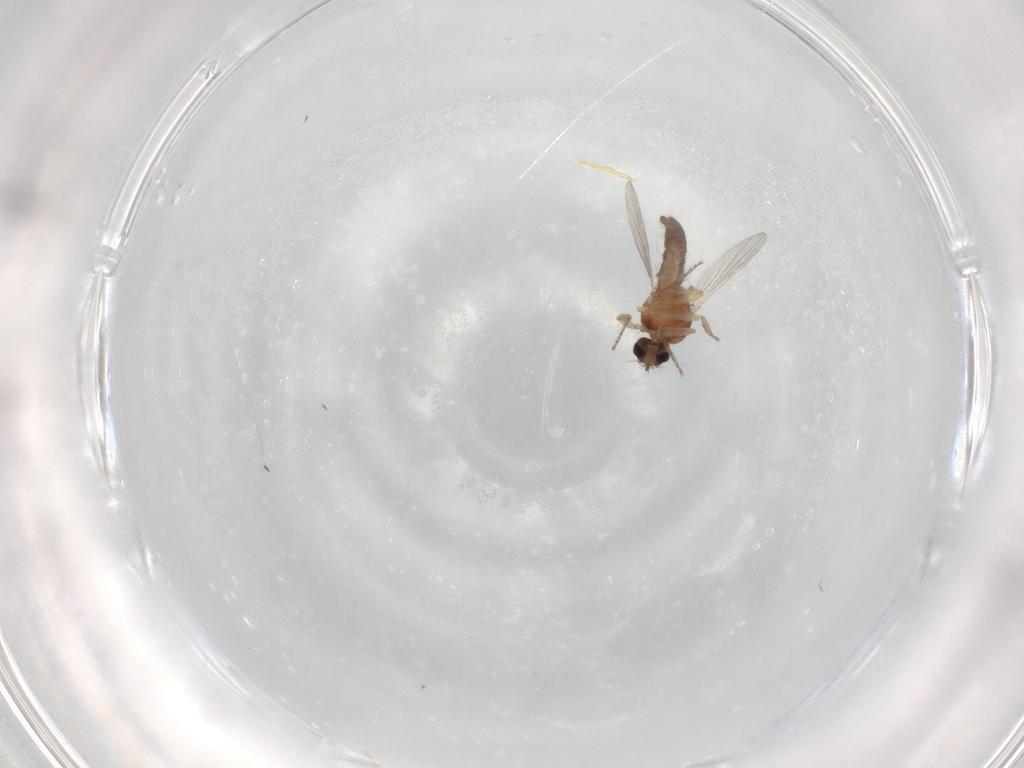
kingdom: Animalia
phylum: Arthropoda
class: Insecta
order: Diptera
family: Ceratopogonidae
